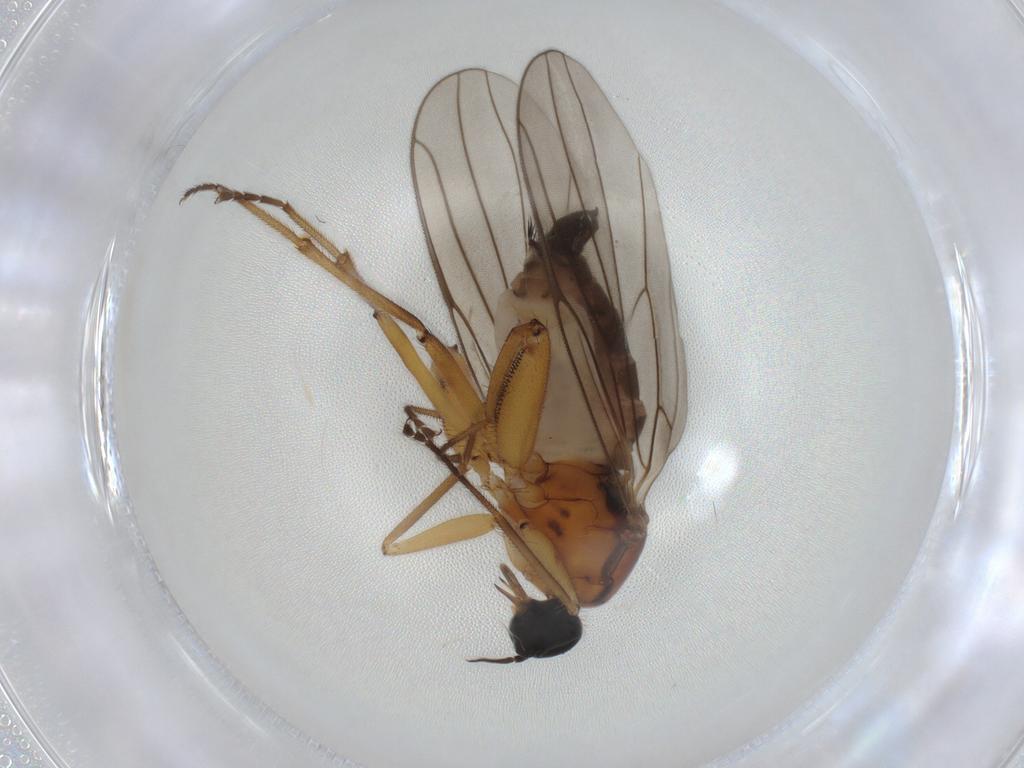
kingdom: Animalia
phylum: Arthropoda
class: Insecta
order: Diptera
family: Hybotidae
